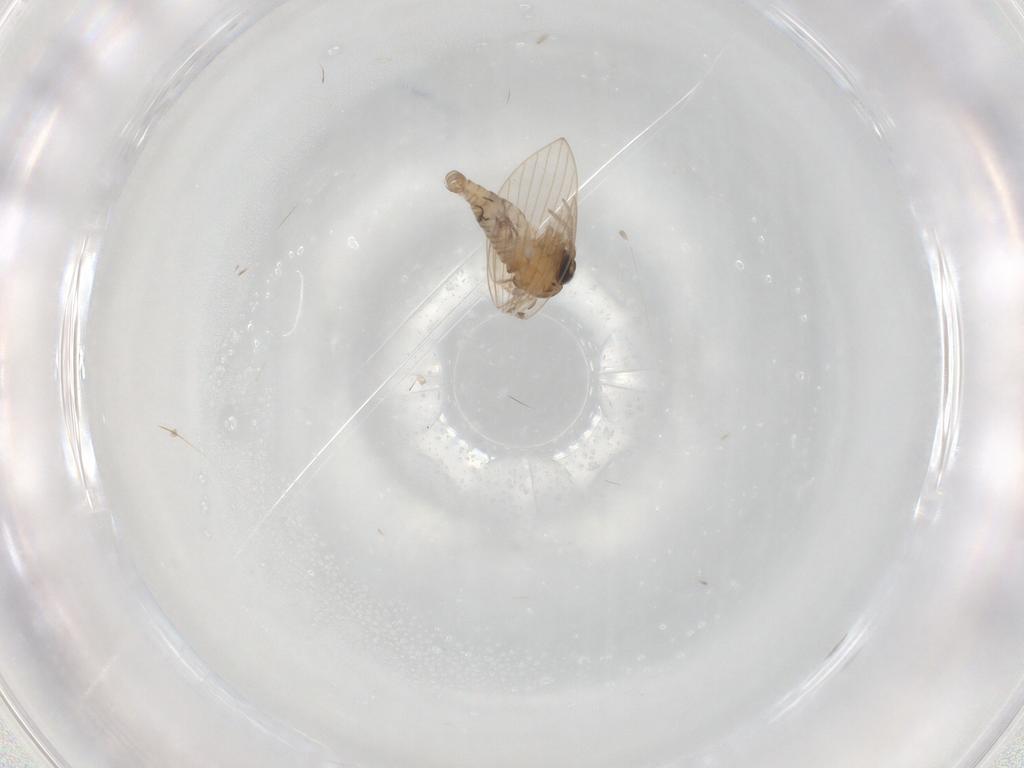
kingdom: Animalia
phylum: Arthropoda
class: Insecta
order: Diptera
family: Psychodidae
